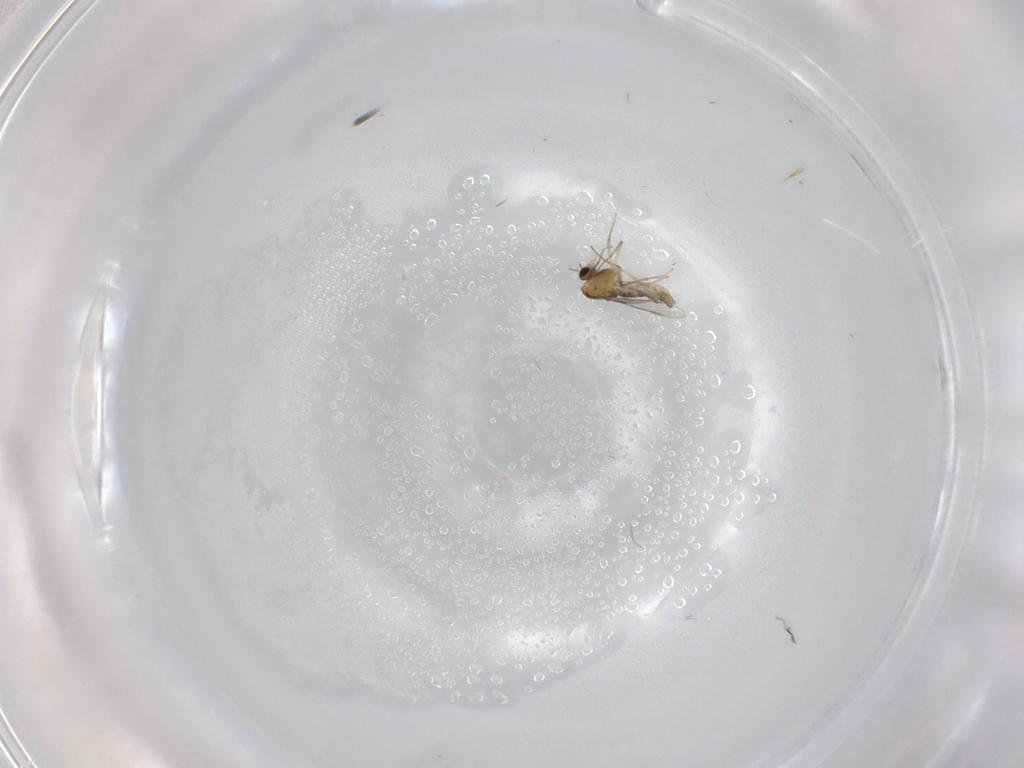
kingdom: Animalia
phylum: Arthropoda
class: Insecta
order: Diptera
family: Chironomidae
